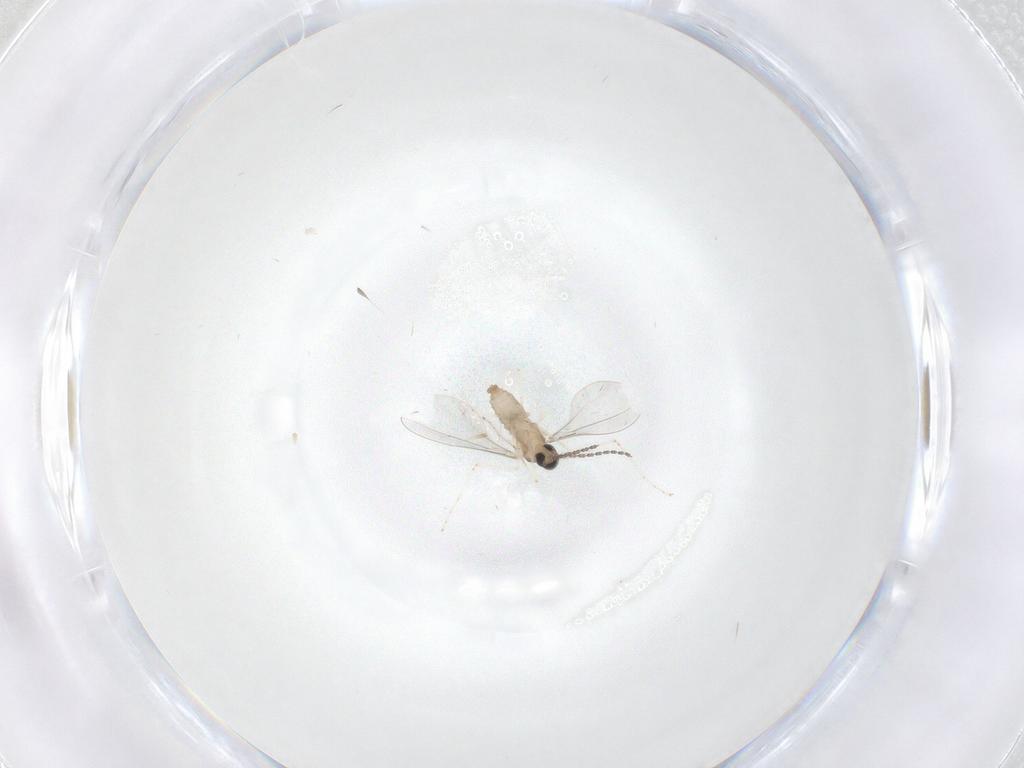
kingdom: Animalia
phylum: Arthropoda
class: Insecta
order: Diptera
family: Cecidomyiidae
